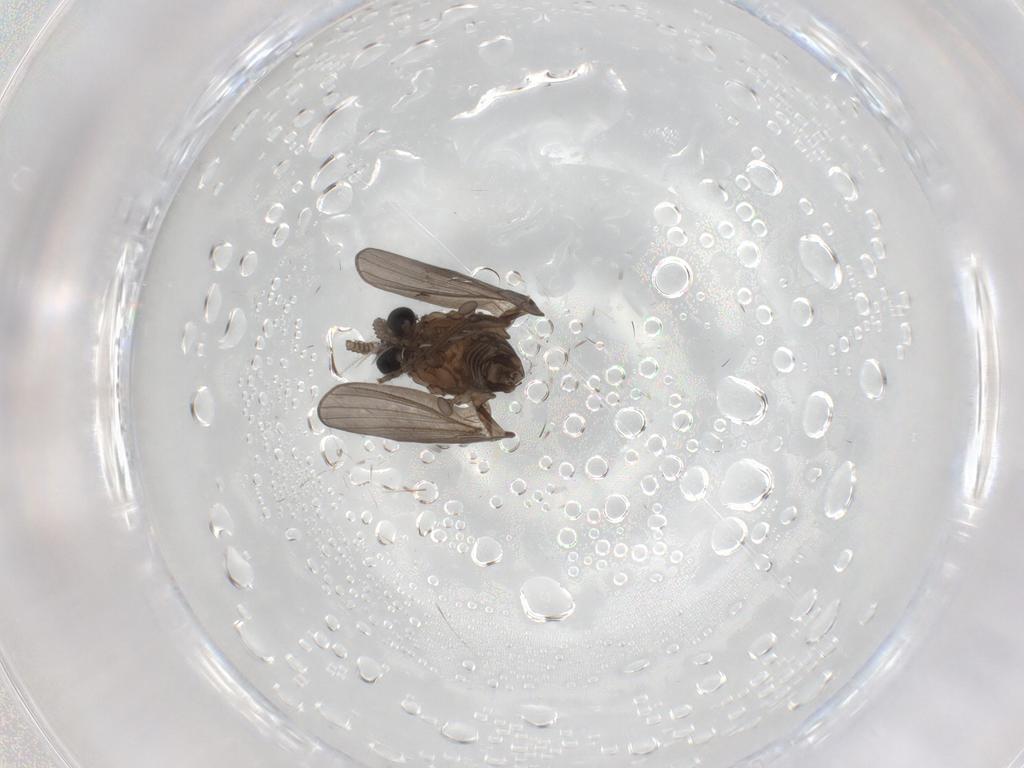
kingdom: Animalia
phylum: Arthropoda
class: Insecta
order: Diptera
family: Psychodidae
